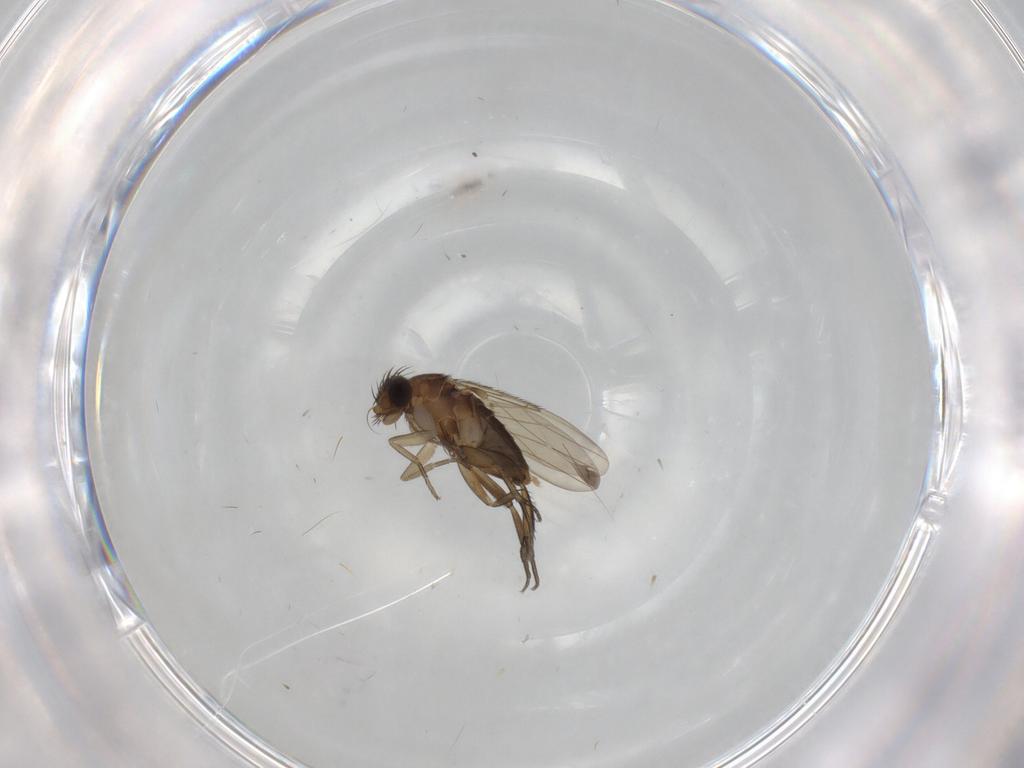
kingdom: Animalia
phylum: Arthropoda
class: Insecta
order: Diptera
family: Phoridae
